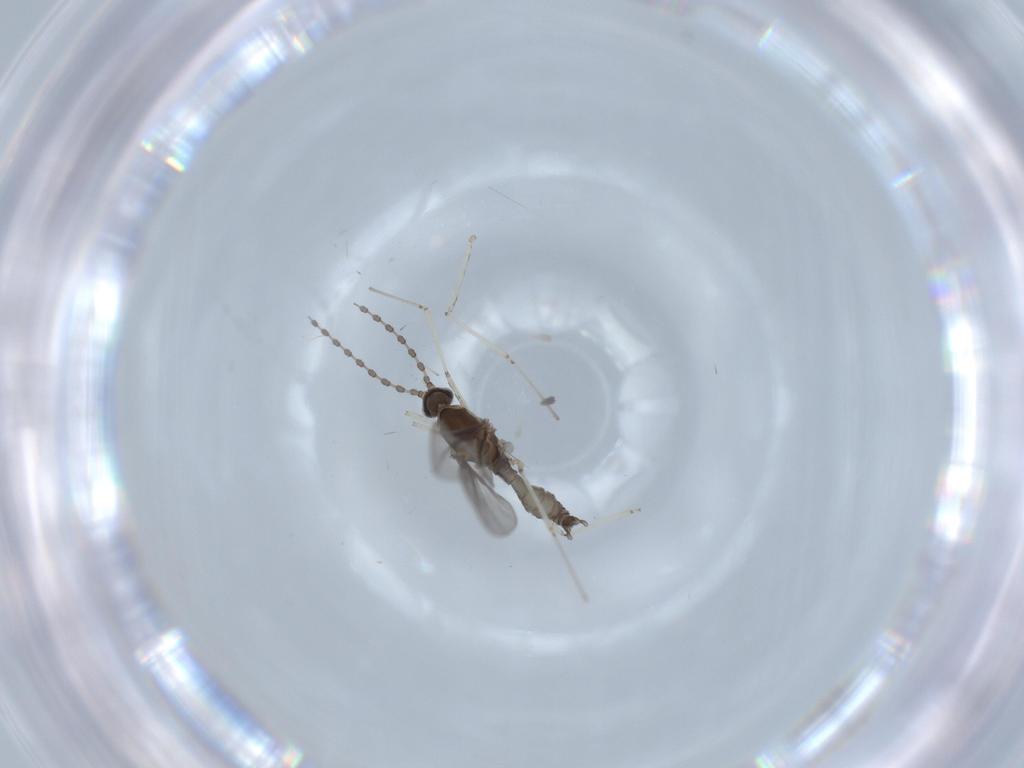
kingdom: Animalia
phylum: Arthropoda
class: Insecta
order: Diptera
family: Cecidomyiidae
